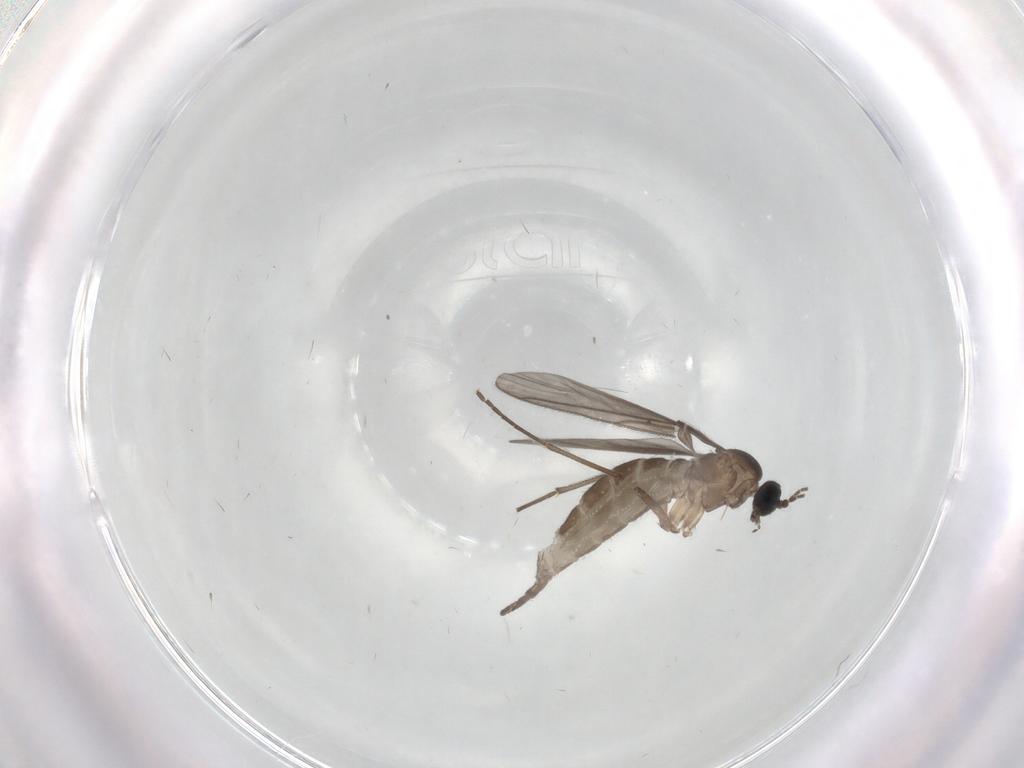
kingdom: Animalia
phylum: Arthropoda
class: Insecta
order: Diptera
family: Sciaridae
